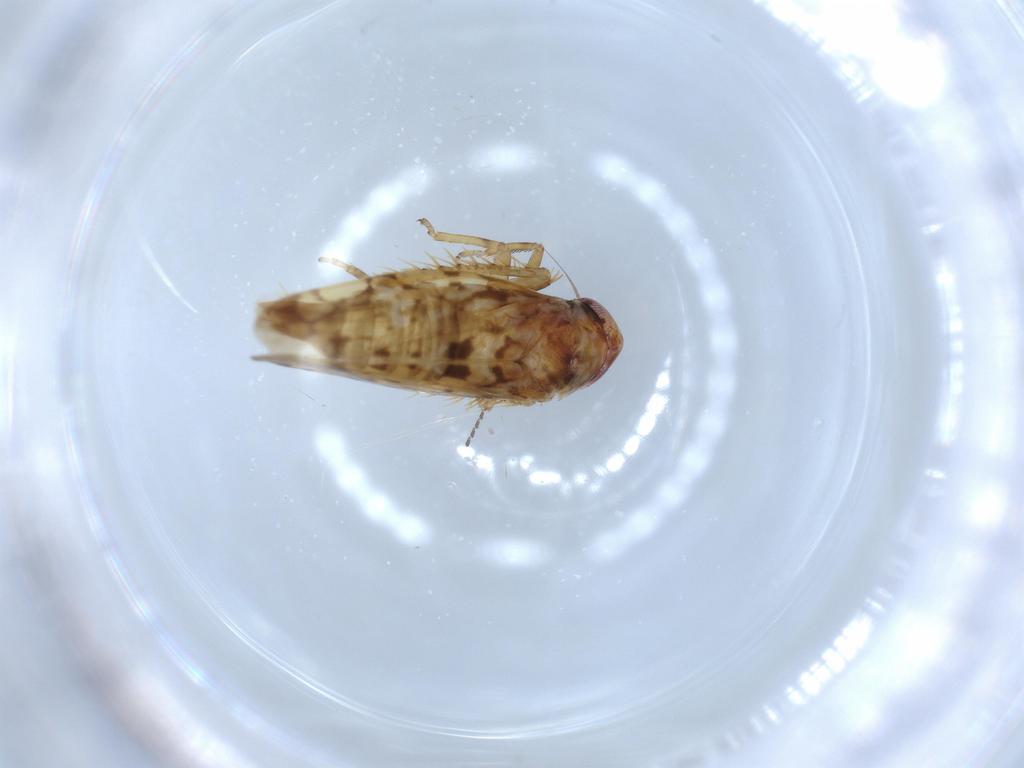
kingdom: Animalia
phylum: Arthropoda
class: Insecta
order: Hemiptera
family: Cicadellidae
